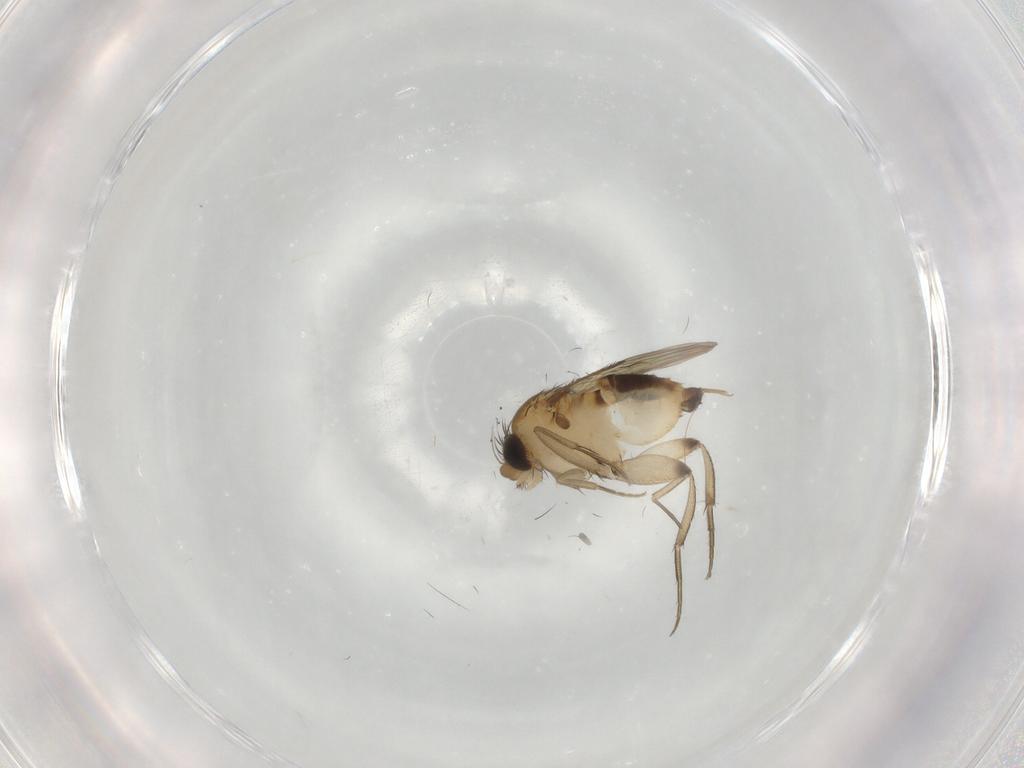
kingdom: Animalia
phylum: Arthropoda
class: Insecta
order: Diptera
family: Phoridae
